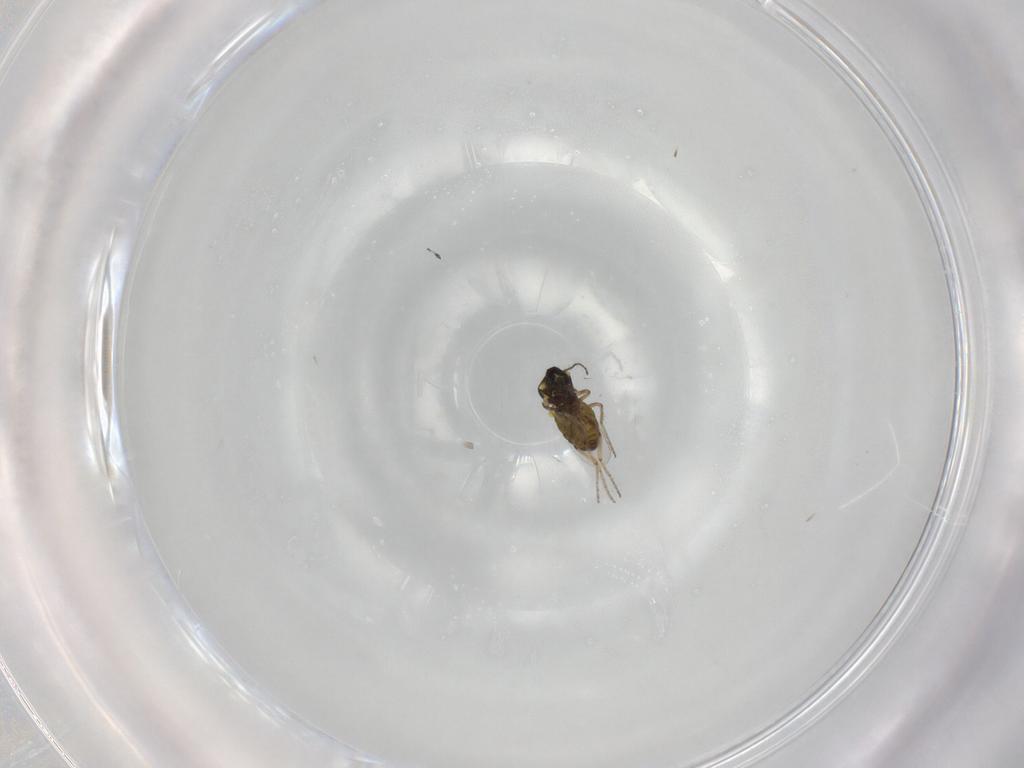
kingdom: Animalia
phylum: Arthropoda
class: Insecta
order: Diptera
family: Ceratopogonidae
